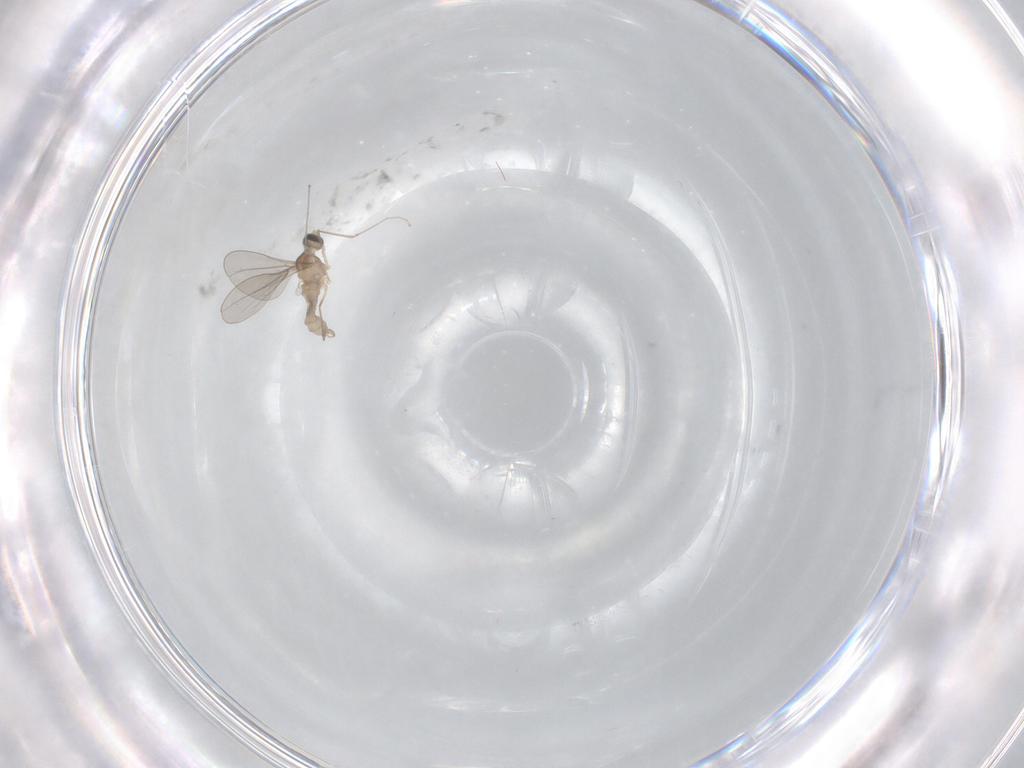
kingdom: Animalia
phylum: Arthropoda
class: Insecta
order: Diptera
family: Cecidomyiidae
